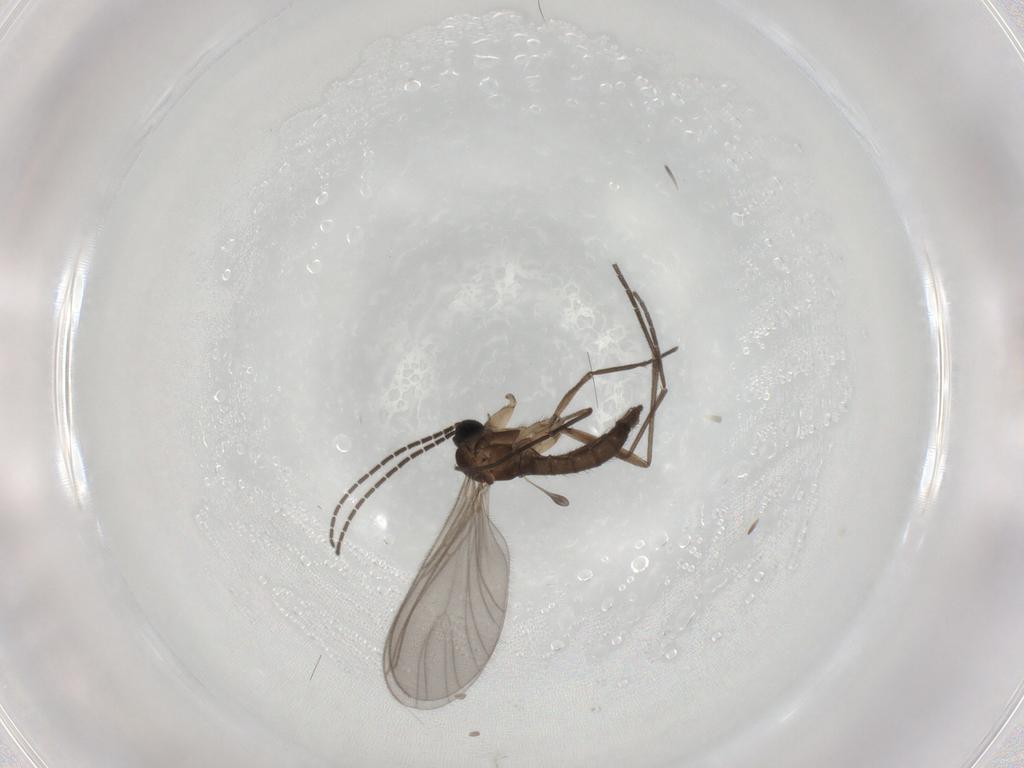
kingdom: Animalia
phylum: Arthropoda
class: Insecta
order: Diptera
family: Sciaridae
